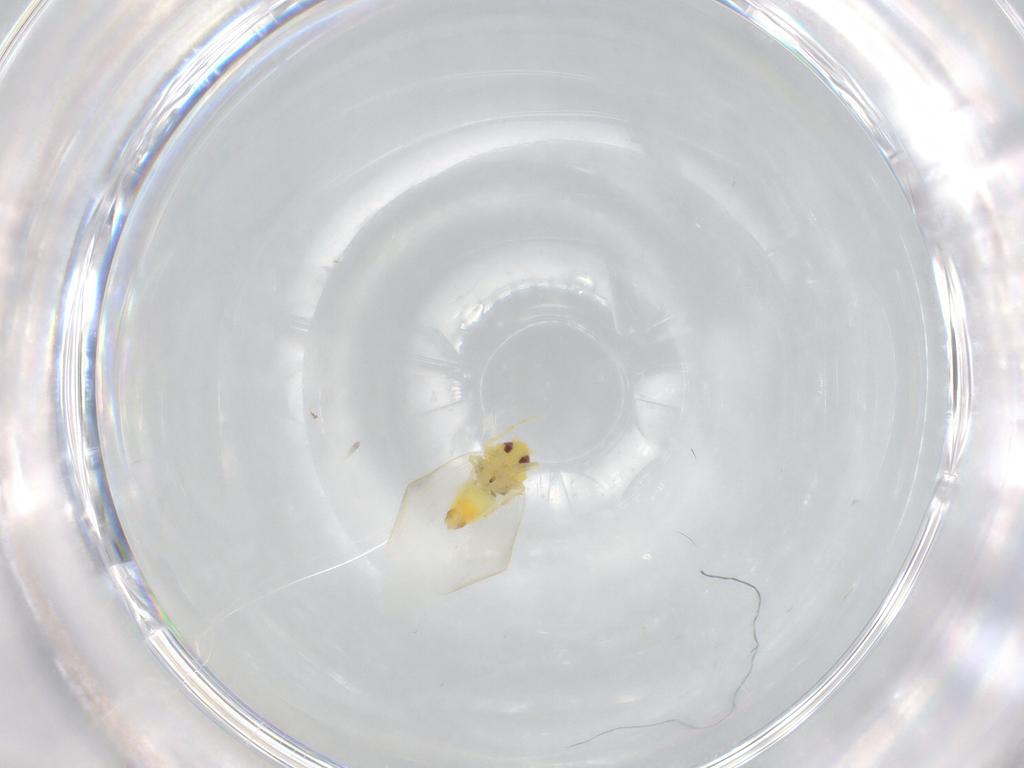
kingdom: Animalia
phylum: Arthropoda
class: Insecta
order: Hemiptera
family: Aleyrodidae
